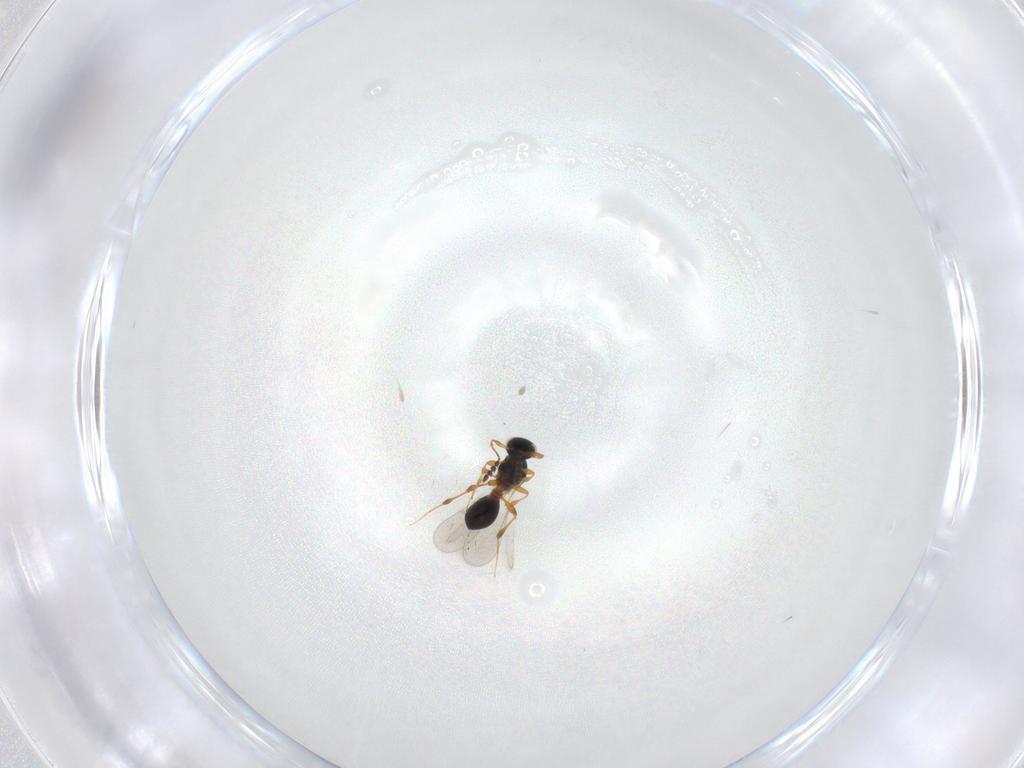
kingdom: Animalia
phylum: Arthropoda
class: Insecta
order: Hymenoptera
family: Platygastridae
